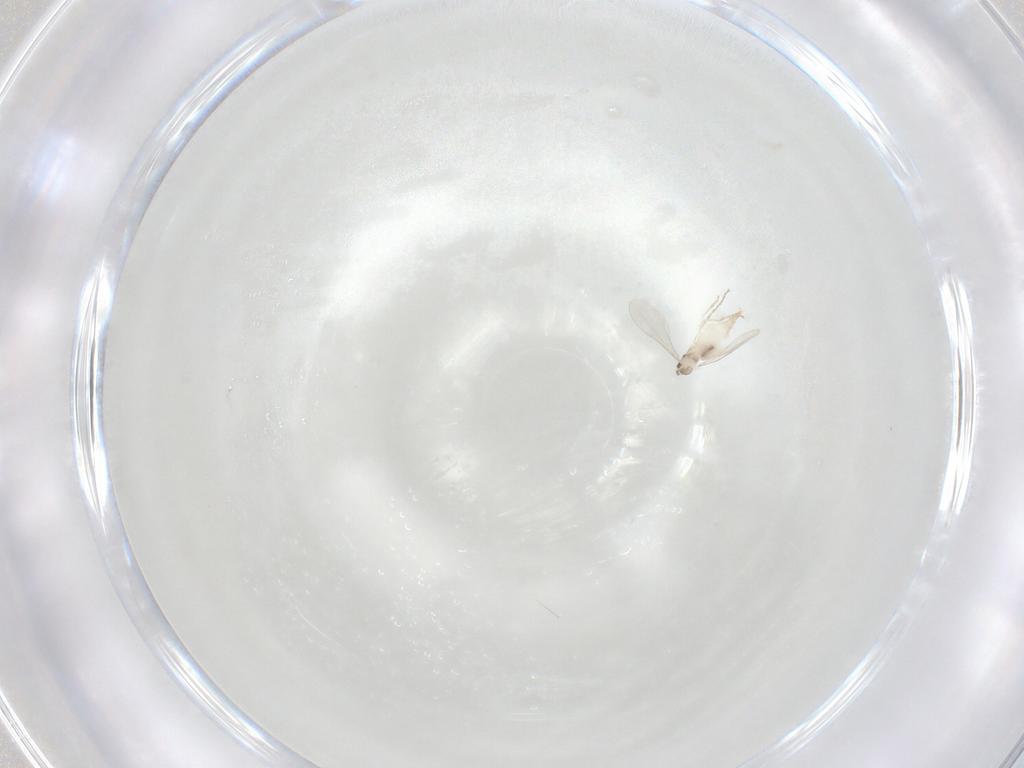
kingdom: Animalia
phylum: Arthropoda
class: Insecta
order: Diptera
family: Cecidomyiidae
